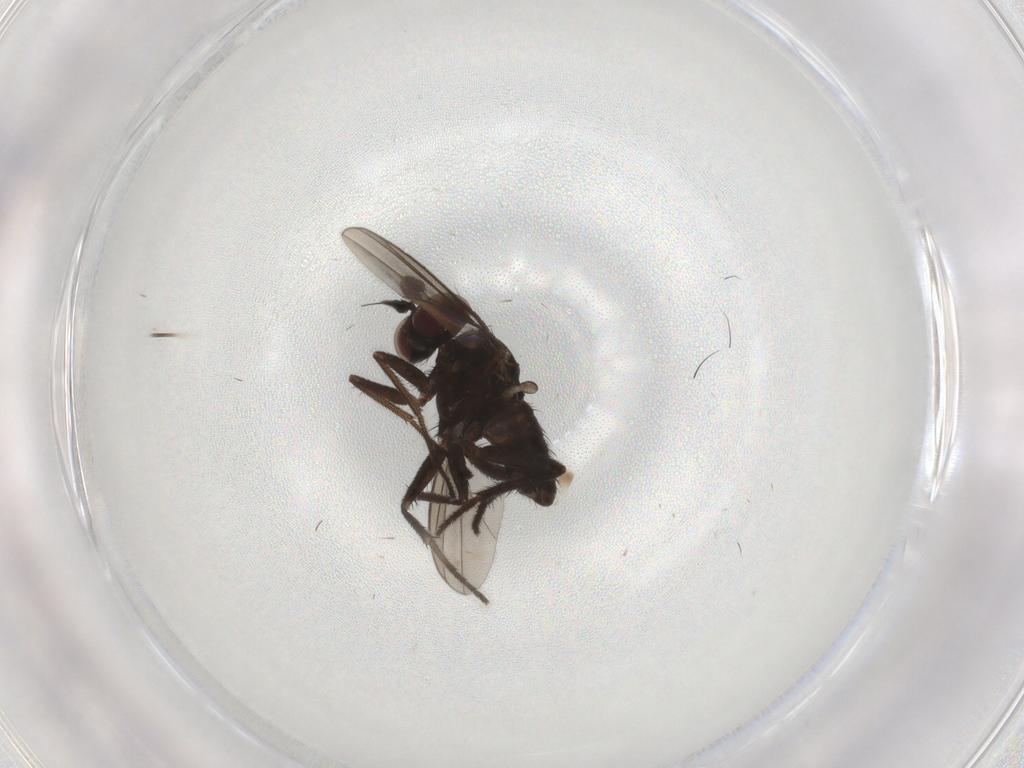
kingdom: Animalia
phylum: Arthropoda
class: Insecta
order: Diptera
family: Dolichopodidae
